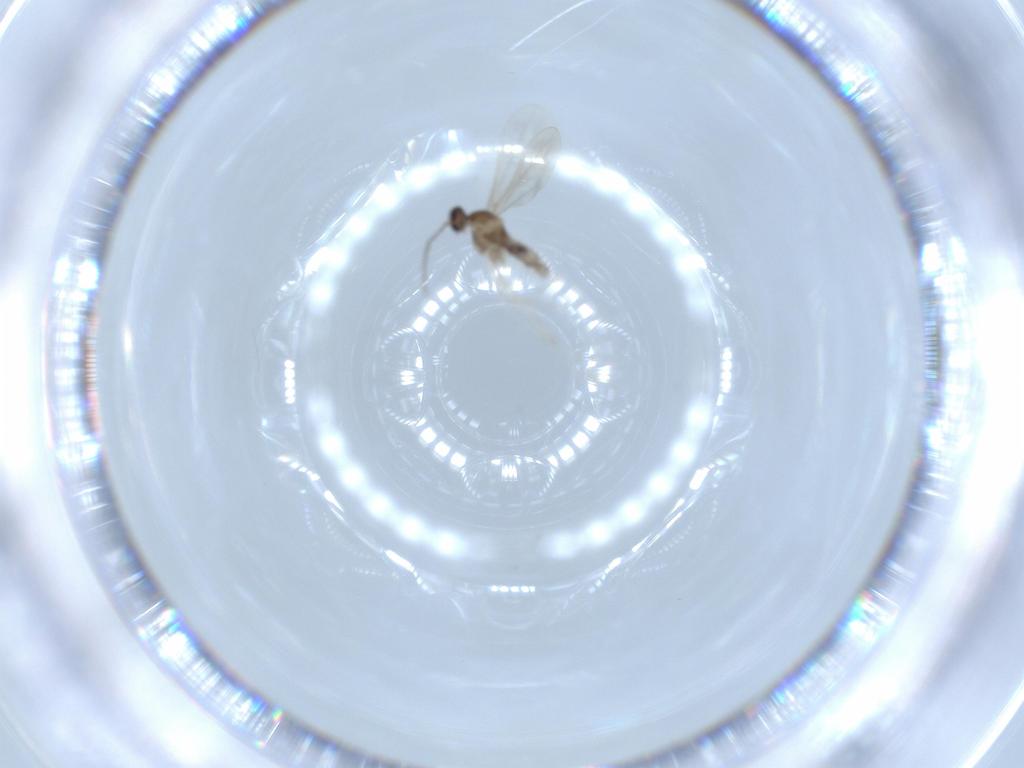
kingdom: Animalia
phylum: Arthropoda
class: Insecta
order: Diptera
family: Cecidomyiidae
